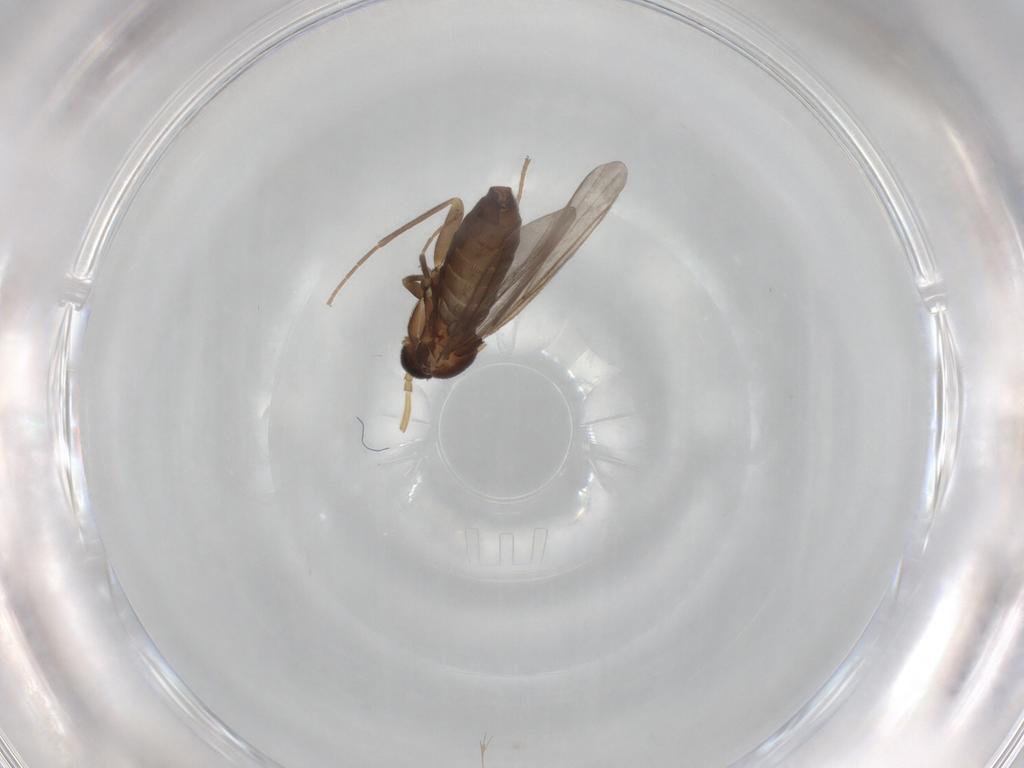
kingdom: Animalia
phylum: Arthropoda
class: Insecta
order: Diptera
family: Scatopsidae
